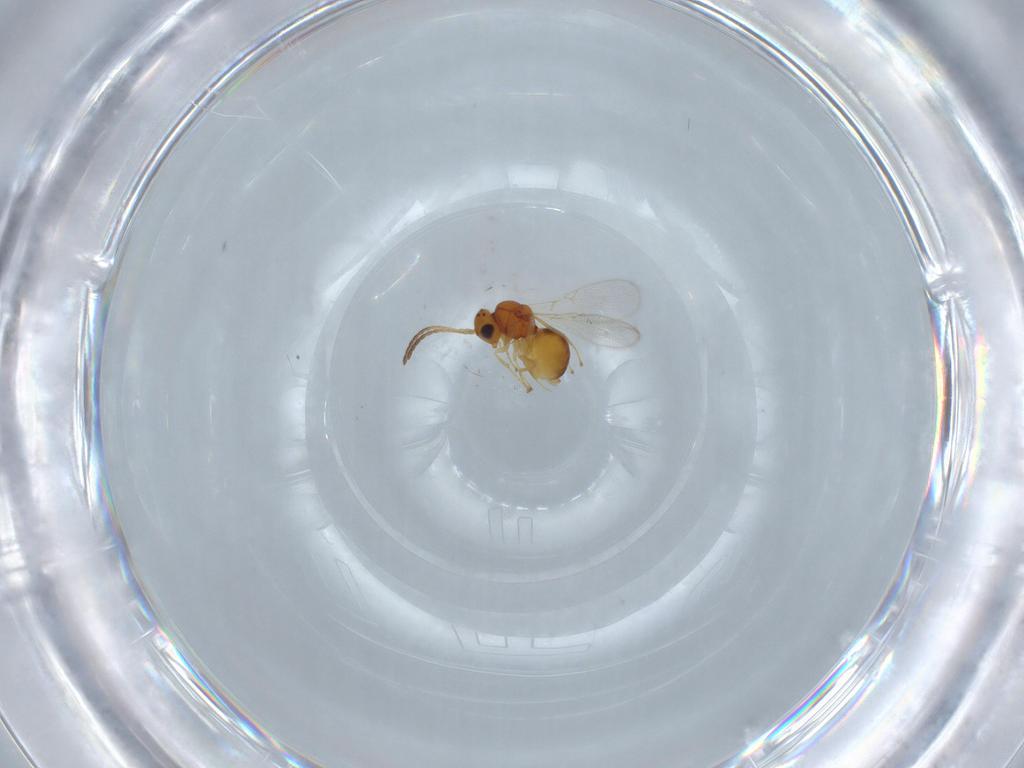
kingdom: Animalia
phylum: Arthropoda
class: Insecta
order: Hymenoptera
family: Figitidae
